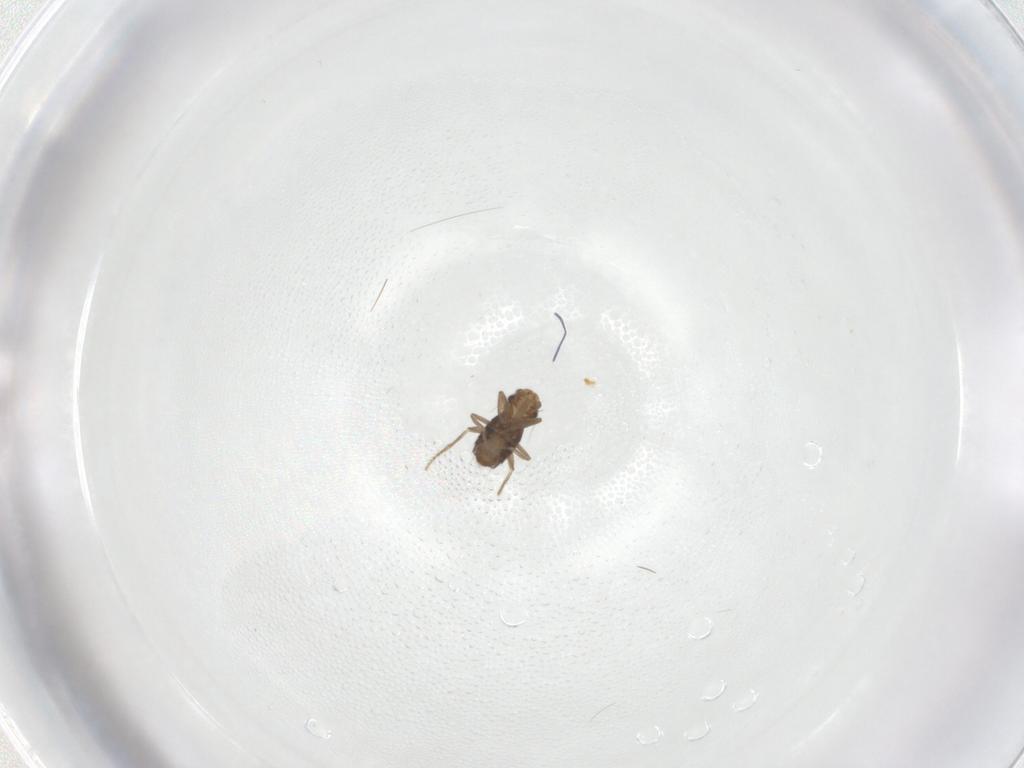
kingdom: Animalia
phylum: Arthropoda
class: Insecta
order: Diptera
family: Phoridae
